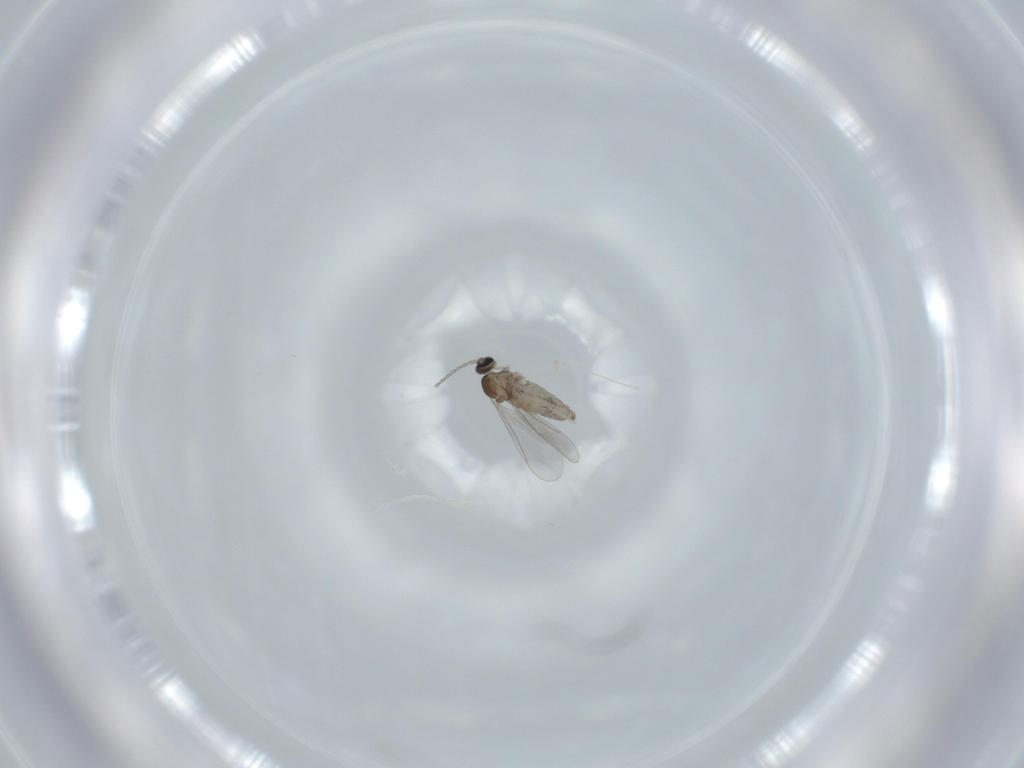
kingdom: Animalia
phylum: Arthropoda
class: Insecta
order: Diptera
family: Cecidomyiidae
